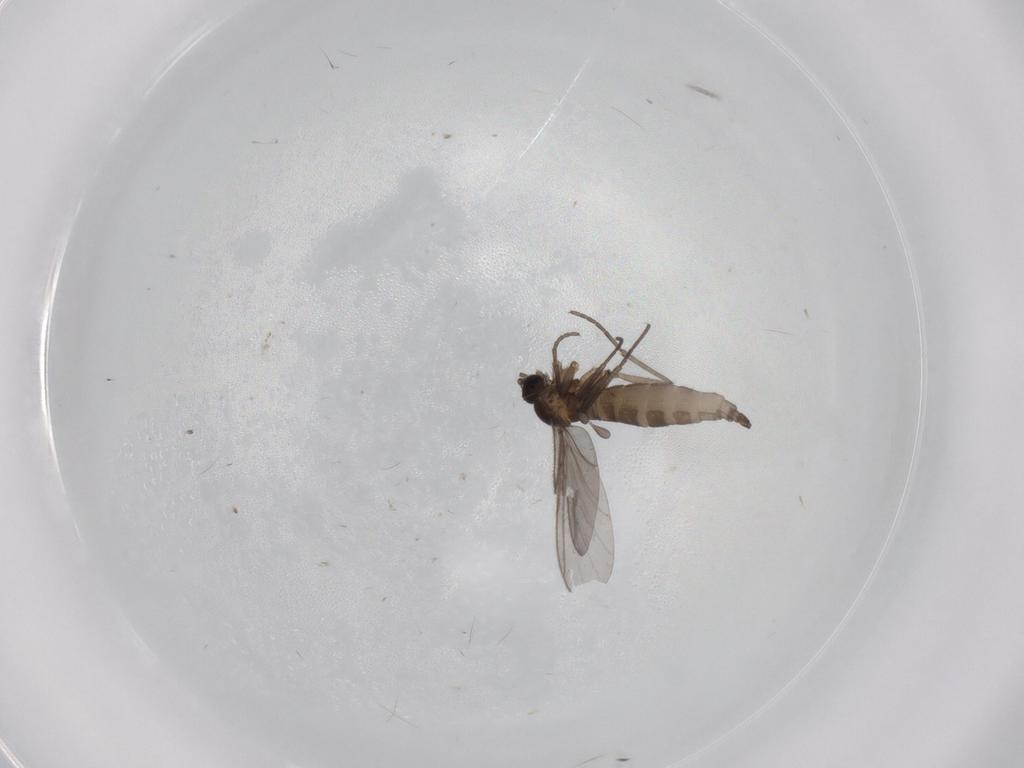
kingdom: Animalia
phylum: Arthropoda
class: Insecta
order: Diptera
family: Cecidomyiidae
